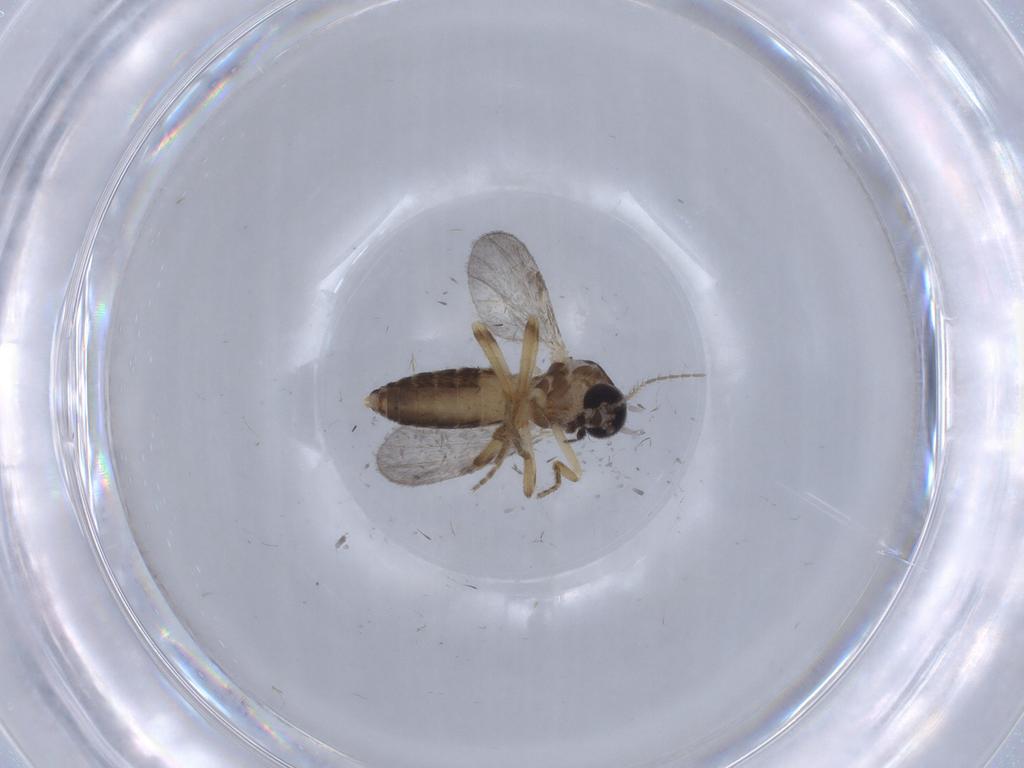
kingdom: Animalia
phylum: Arthropoda
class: Insecta
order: Diptera
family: Ceratopogonidae
